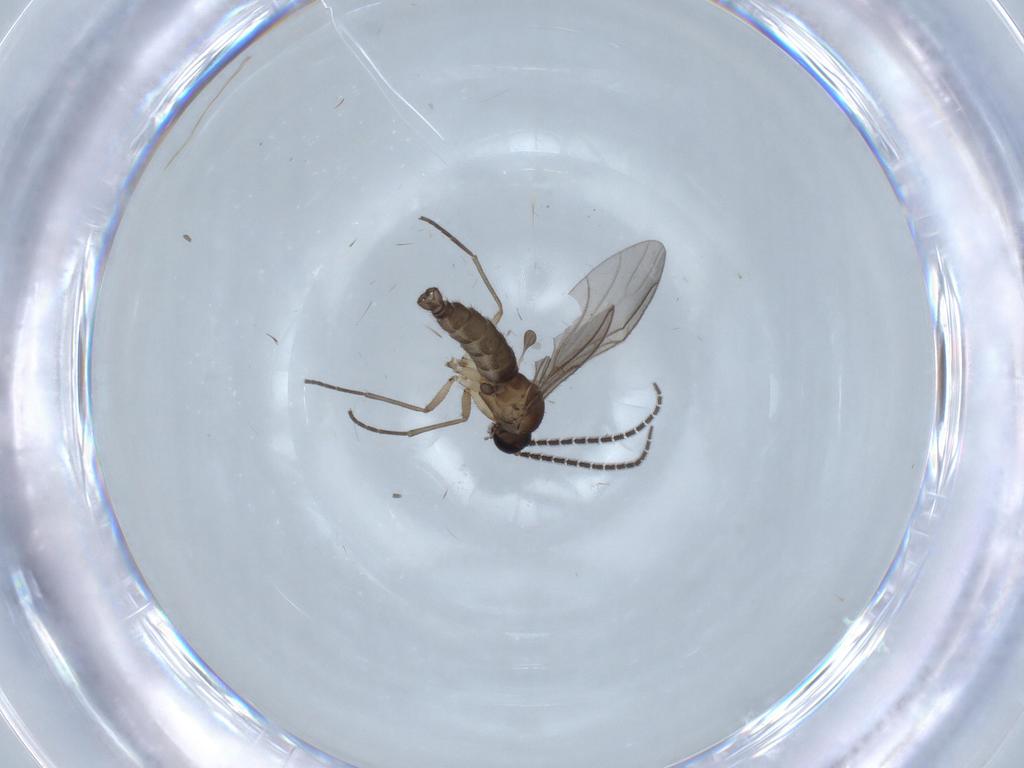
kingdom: Animalia
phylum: Arthropoda
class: Insecta
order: Diptera
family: Sciaridae
